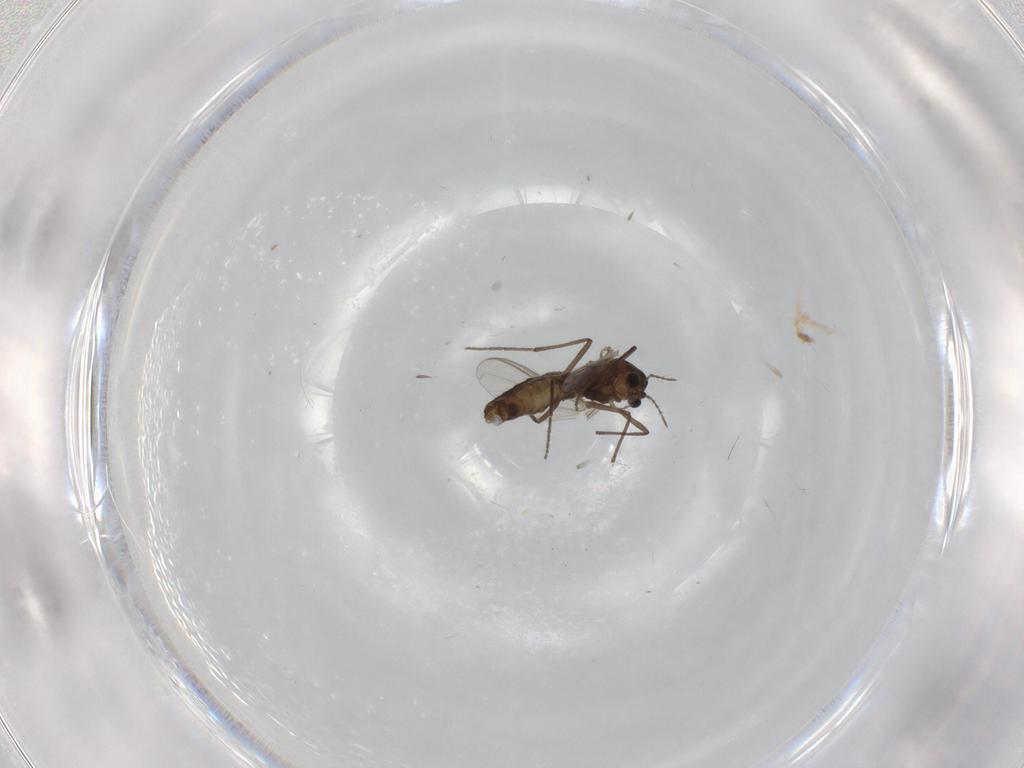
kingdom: Animalia
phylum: Arthropoda
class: Insecta
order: Diptera
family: Chironomidae
